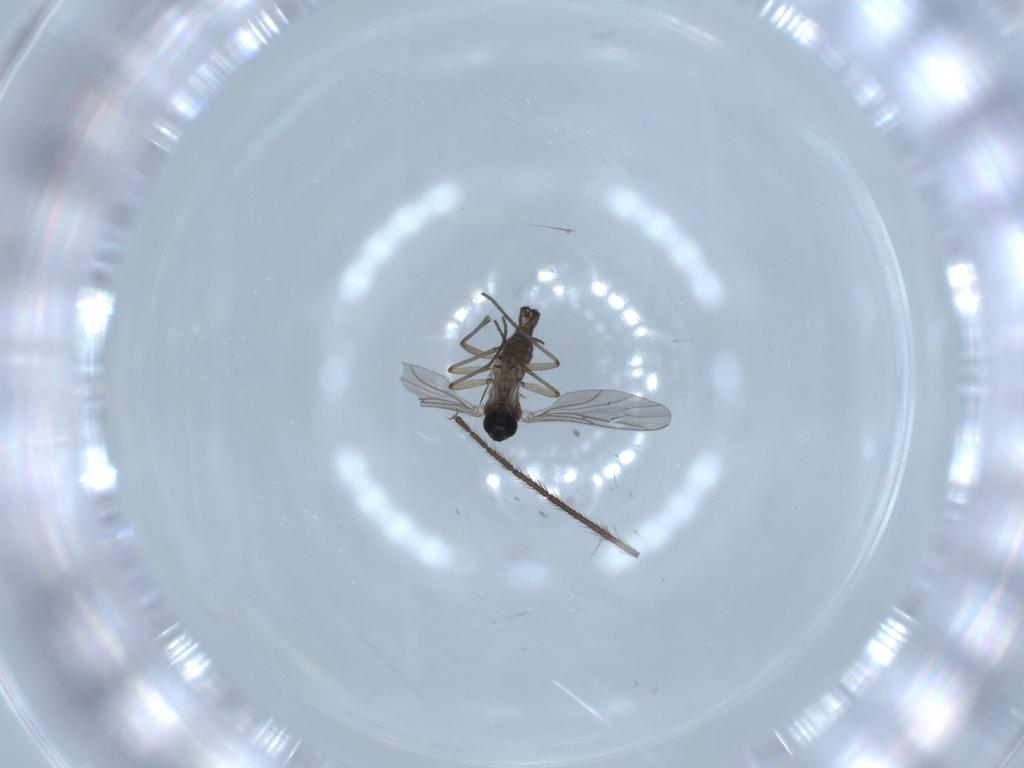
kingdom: Animalia
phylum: Arthropoda
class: Insecta
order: Diptera
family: Sciaridae
